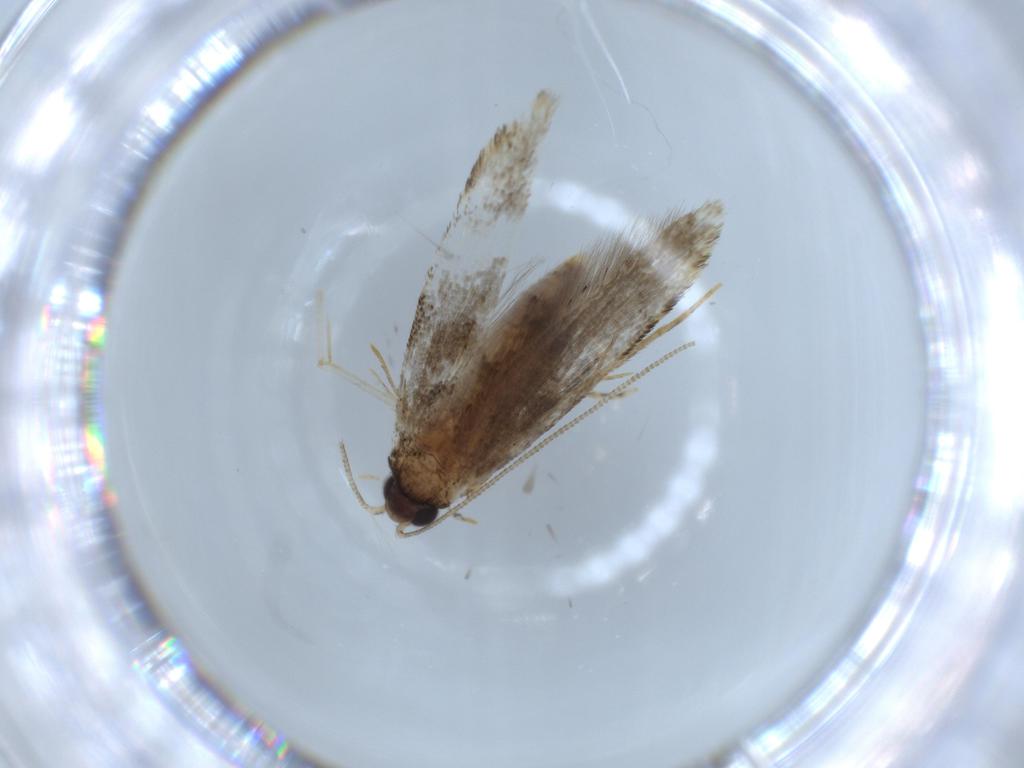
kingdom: Animalia
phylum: Arthropoda
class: Insecta
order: Lepidoptera
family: Tineidae
